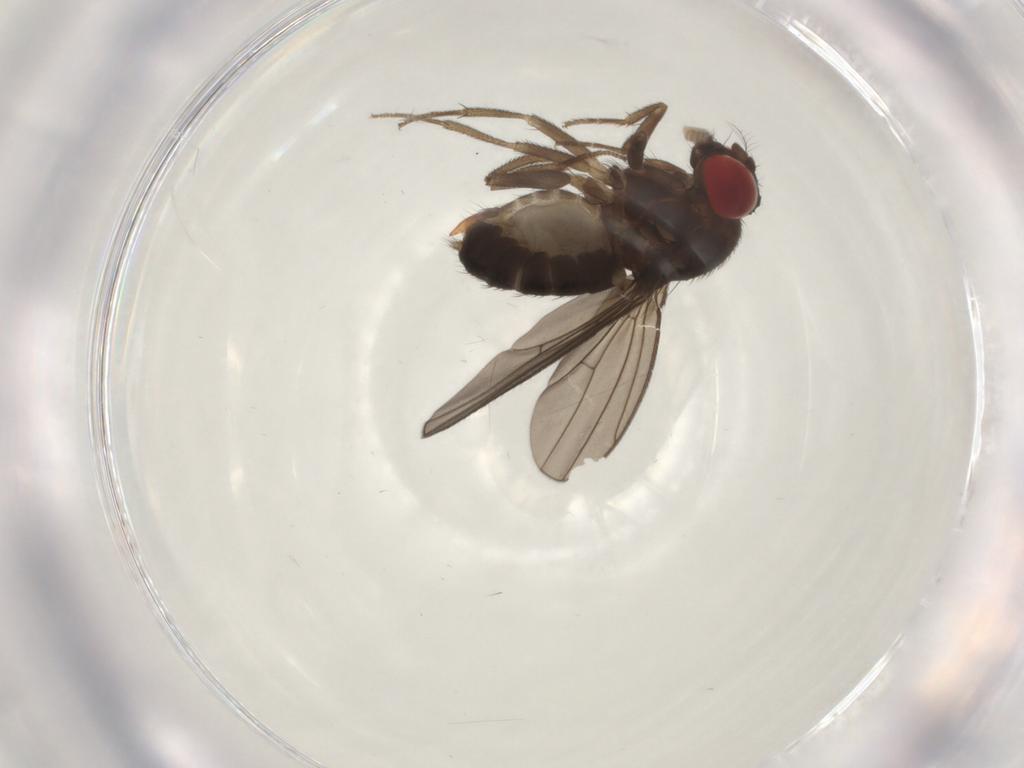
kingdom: Animalia
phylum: Arthropoda
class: Insecta
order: Diptera
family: Drosophilidae
